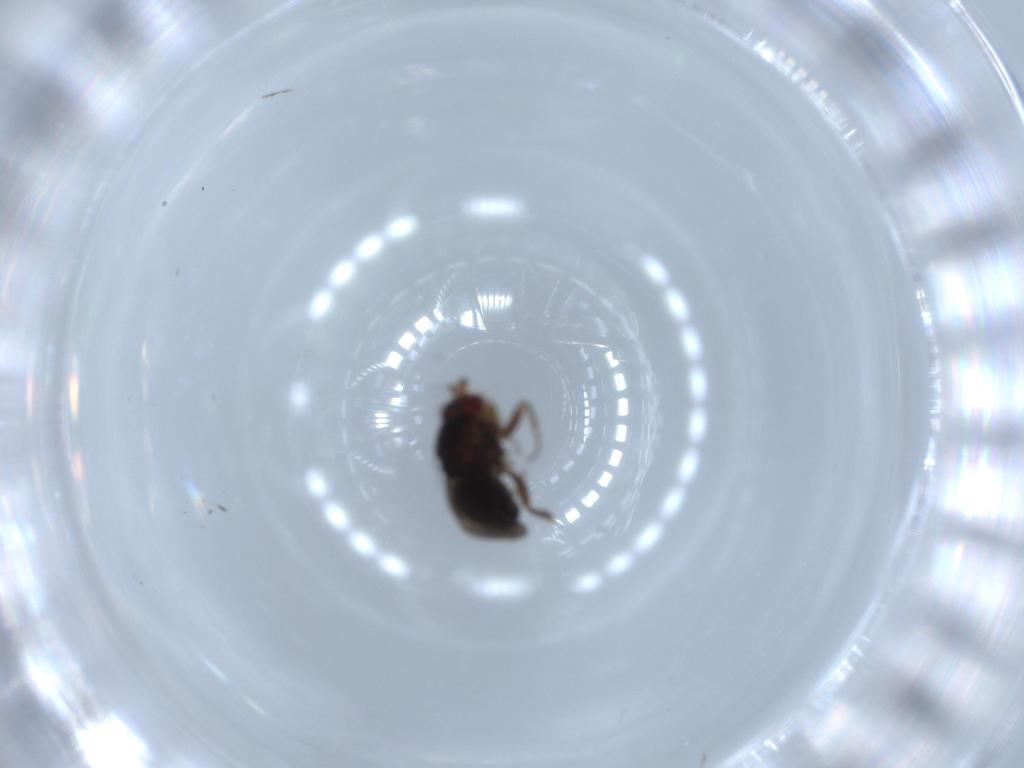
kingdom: Animalia
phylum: Arthropoda
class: Insecta
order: Diptera
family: Sphaeroceridae
